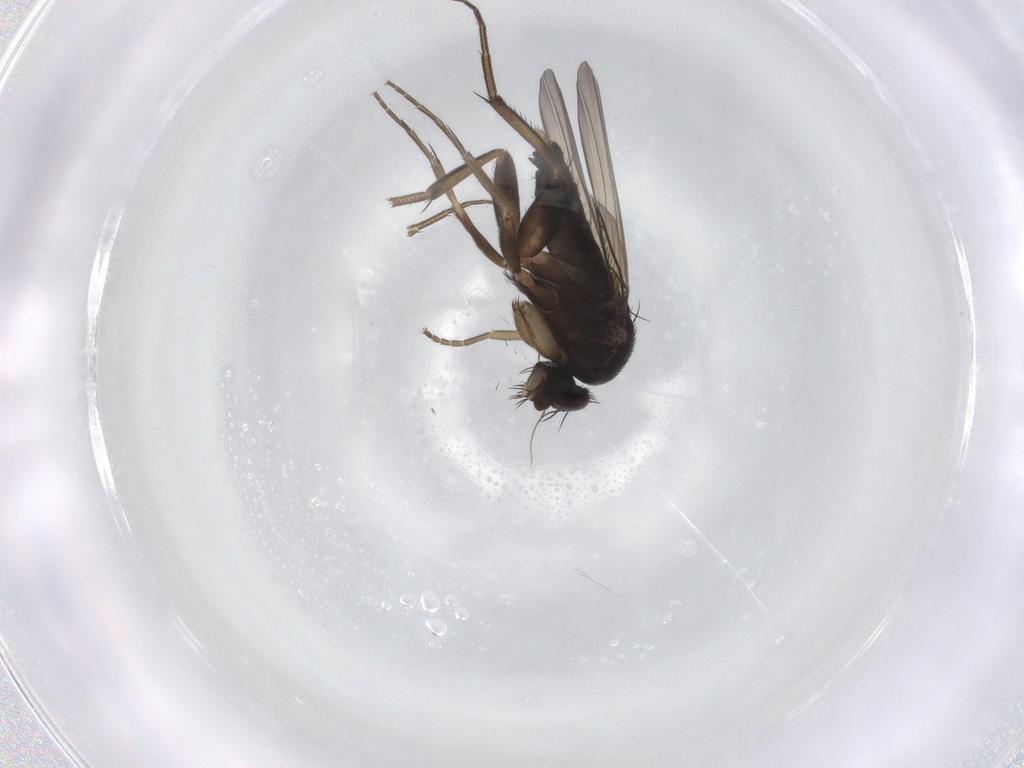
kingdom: Animalia
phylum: Arthropoda
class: Insecta
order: Diptera
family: Phoridae
